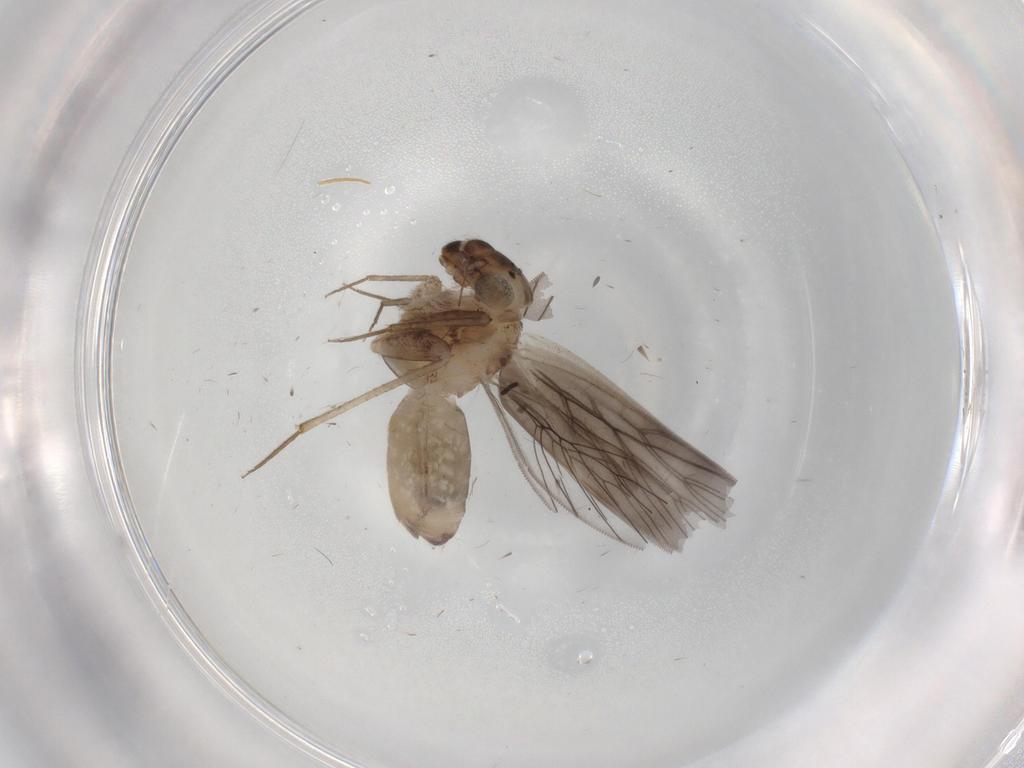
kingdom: Animalia
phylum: Arthropoda
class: Insecta
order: Psocodea
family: Lepidopsocidae
